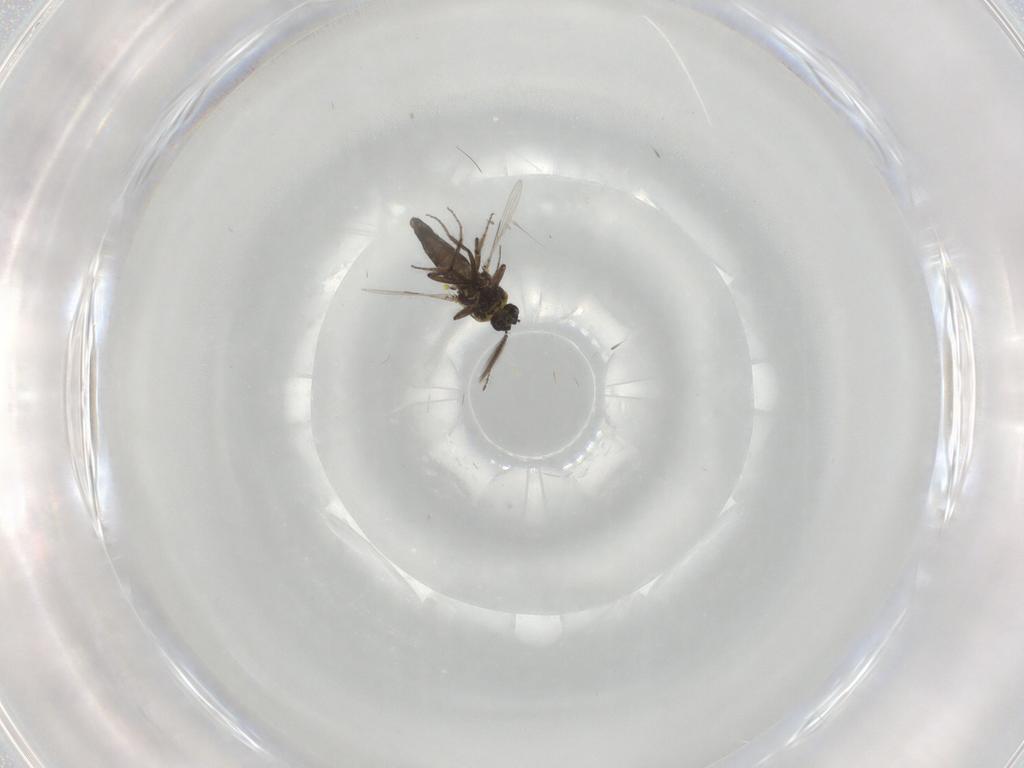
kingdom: Animalia
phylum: Arthropoda
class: Insecta
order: Diptera
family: Ceratopogonidae
